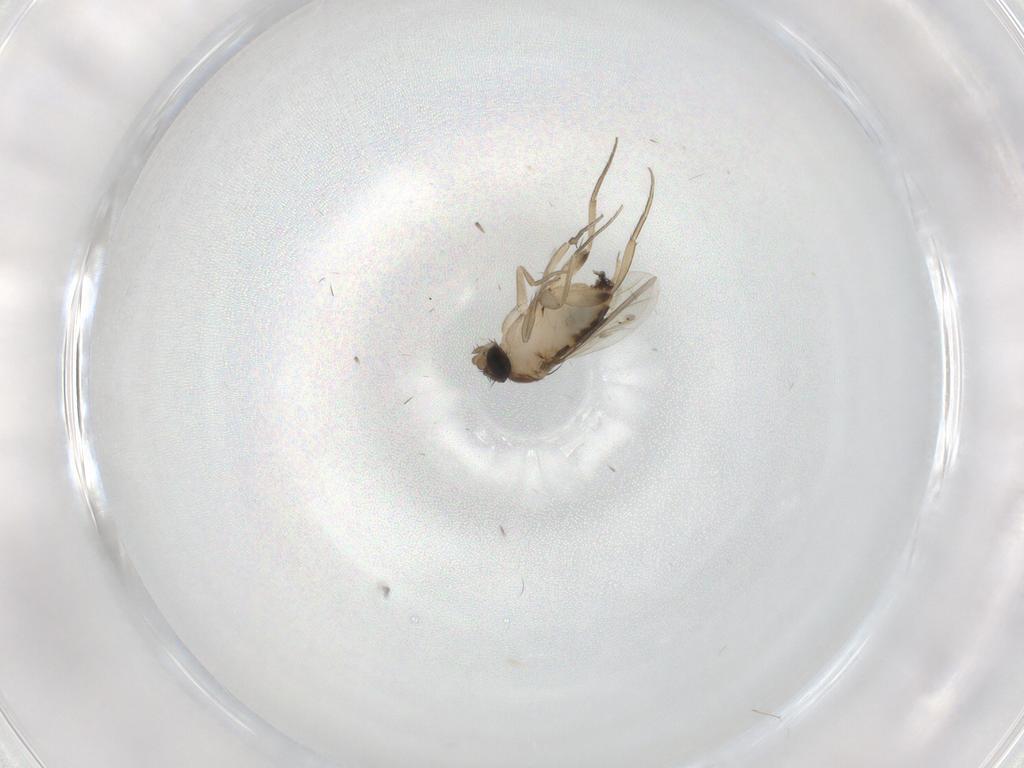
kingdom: Animalia
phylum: Arthropoda
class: Insecta
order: Diptera
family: Phoridae
